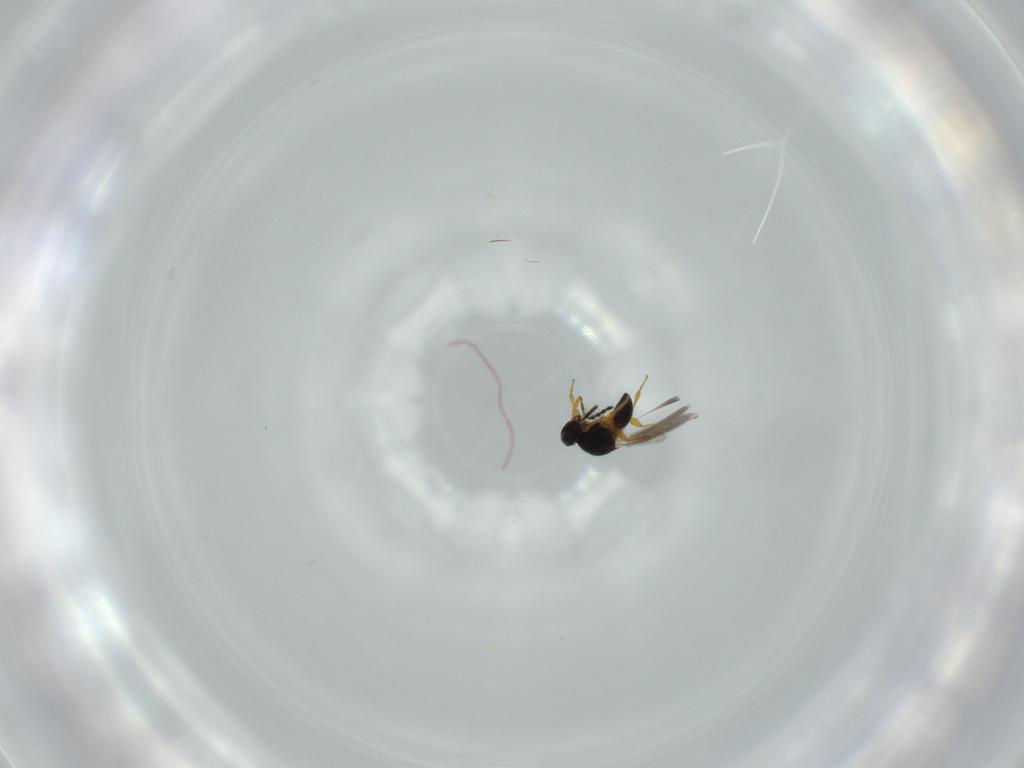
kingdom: Animalia
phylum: Arthropoda
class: Insecta
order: Hymenoptera
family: Platygastridae
